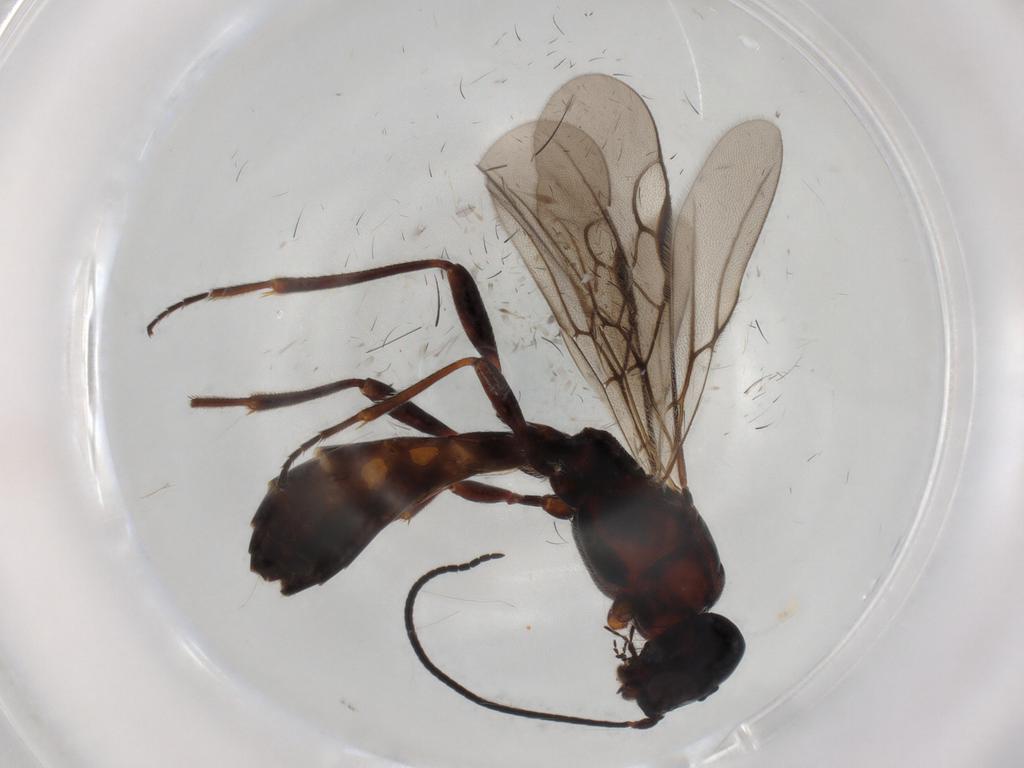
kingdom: Animalia
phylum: Arthropoda
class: Insecta
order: Hymenoptera
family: Braconidae
